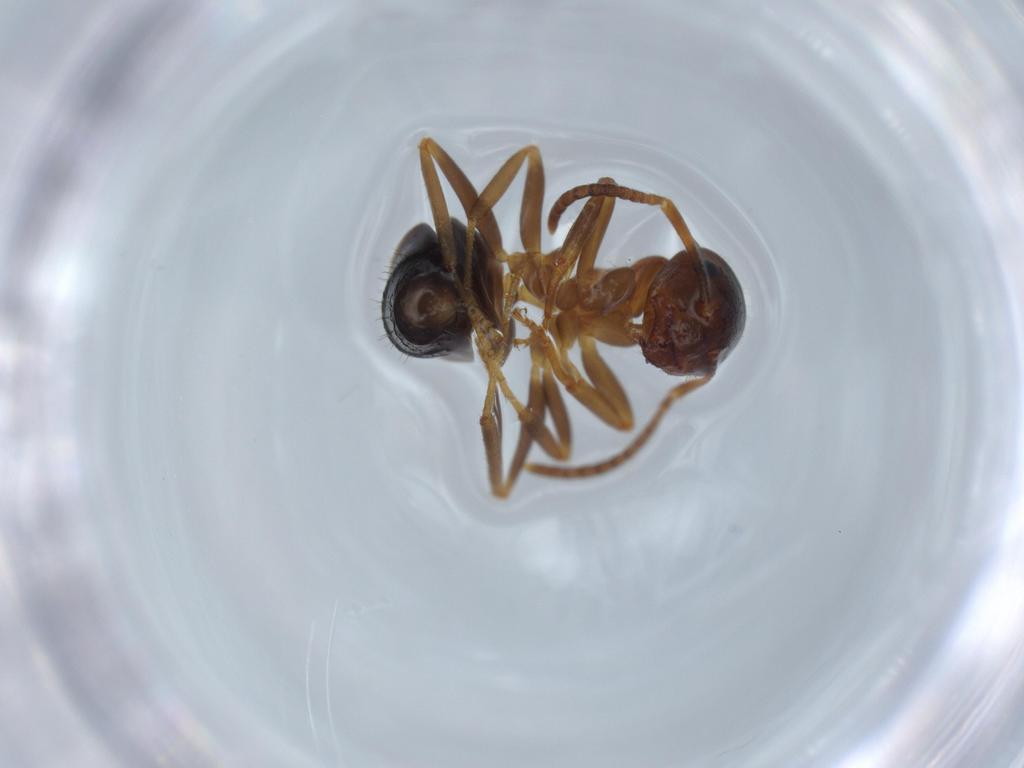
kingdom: Animalia
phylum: Arthropoda
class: Insecta
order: Hymenoptera
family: Formicidae
